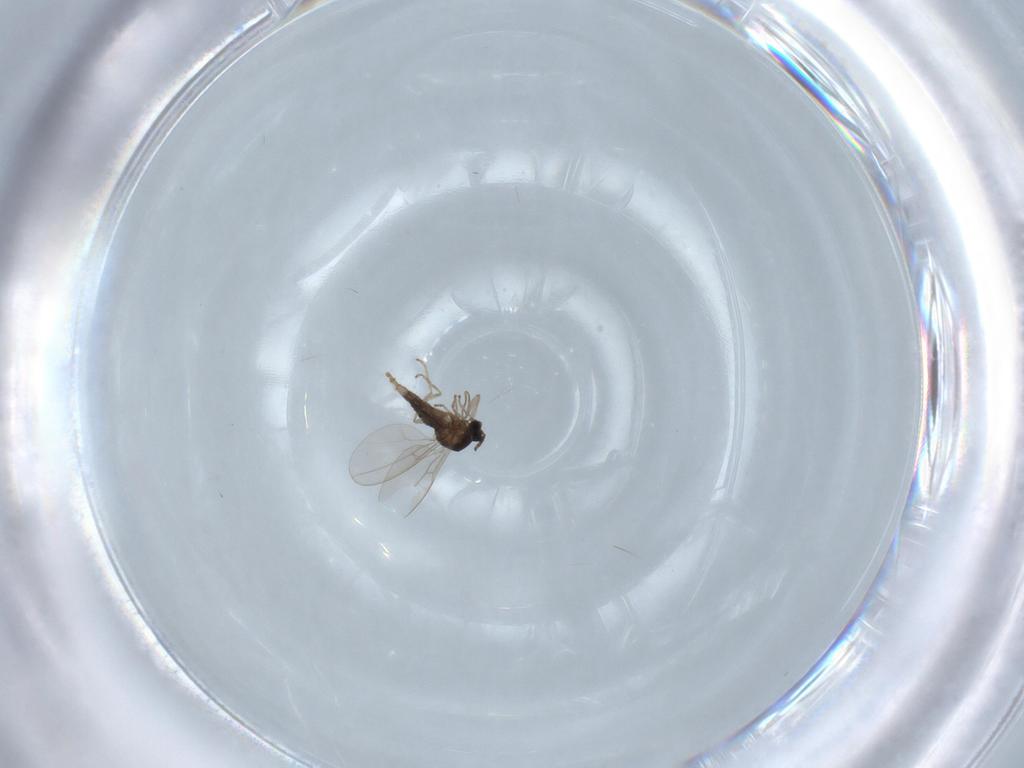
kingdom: Animalia
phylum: Arthropoda
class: Insecta
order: Diptera
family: Cecidomyiidae
